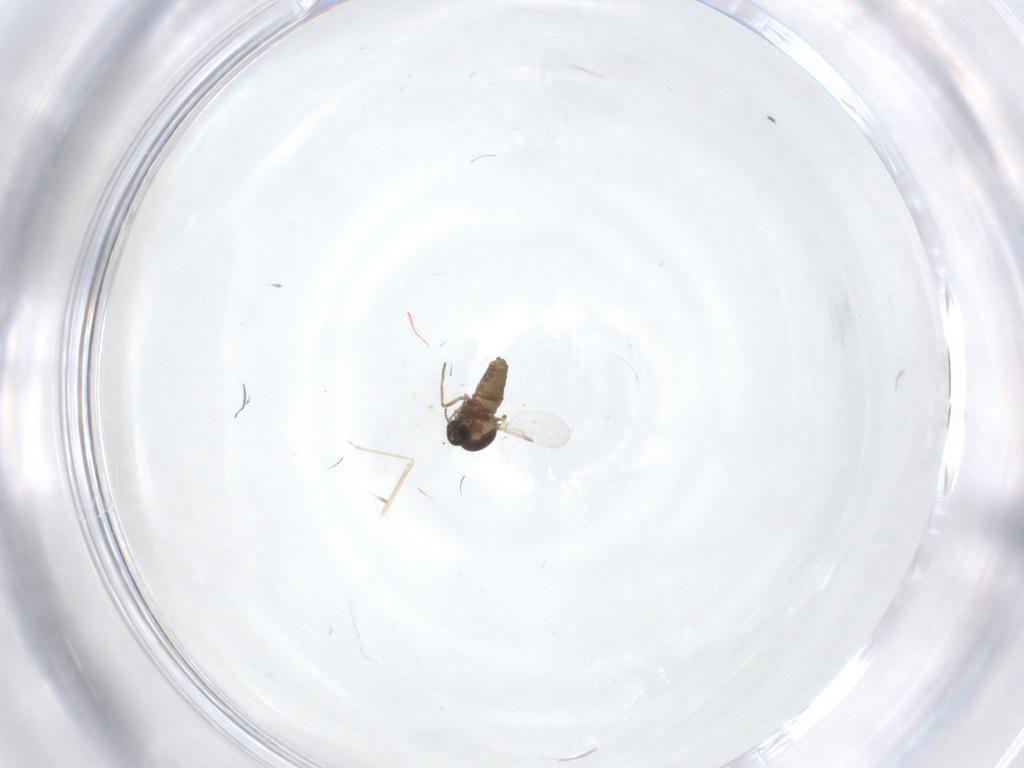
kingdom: Animalia
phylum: Arthropoda
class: Insecta
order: Diptera
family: Ceratopogonidae
